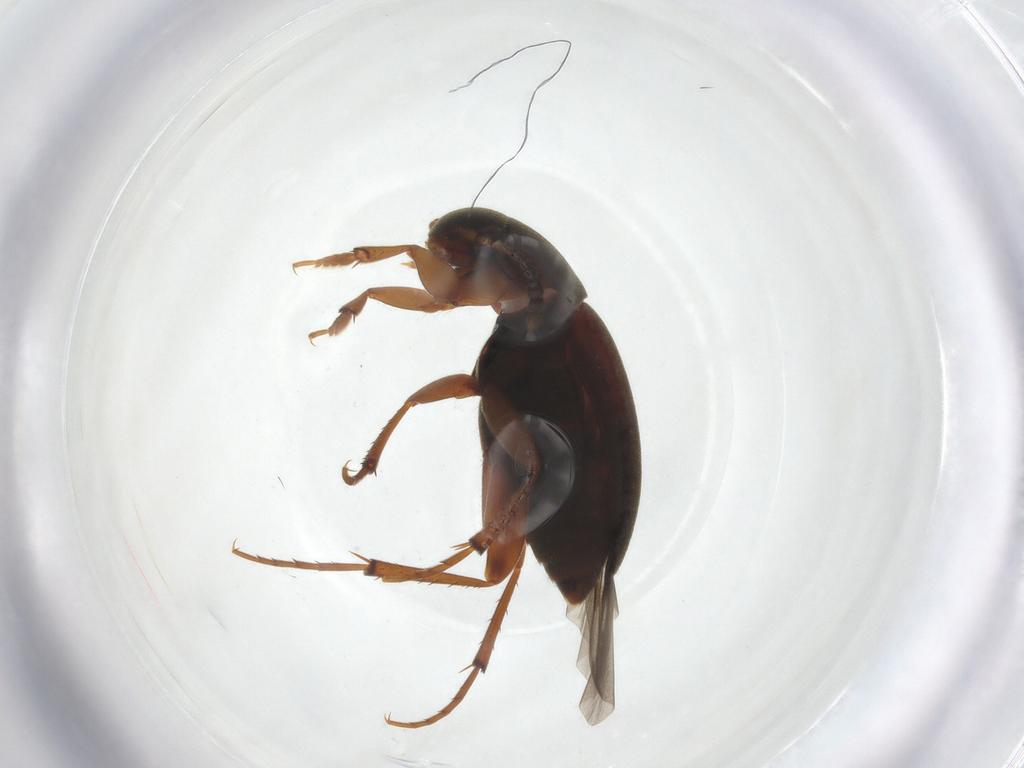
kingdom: Animalia
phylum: Arthropoda
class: Insecta
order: Coleoptera
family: Leiodidae
